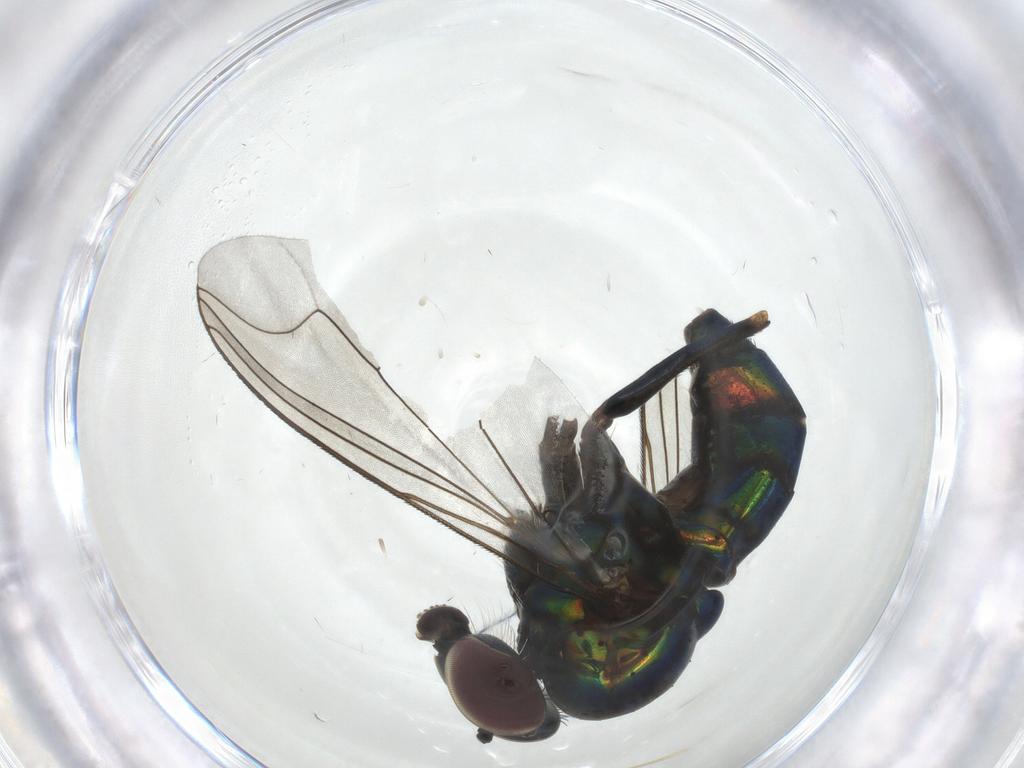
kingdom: Animalia
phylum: Arthropoda
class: Insecta
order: Diptera
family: Dolichopodidae
